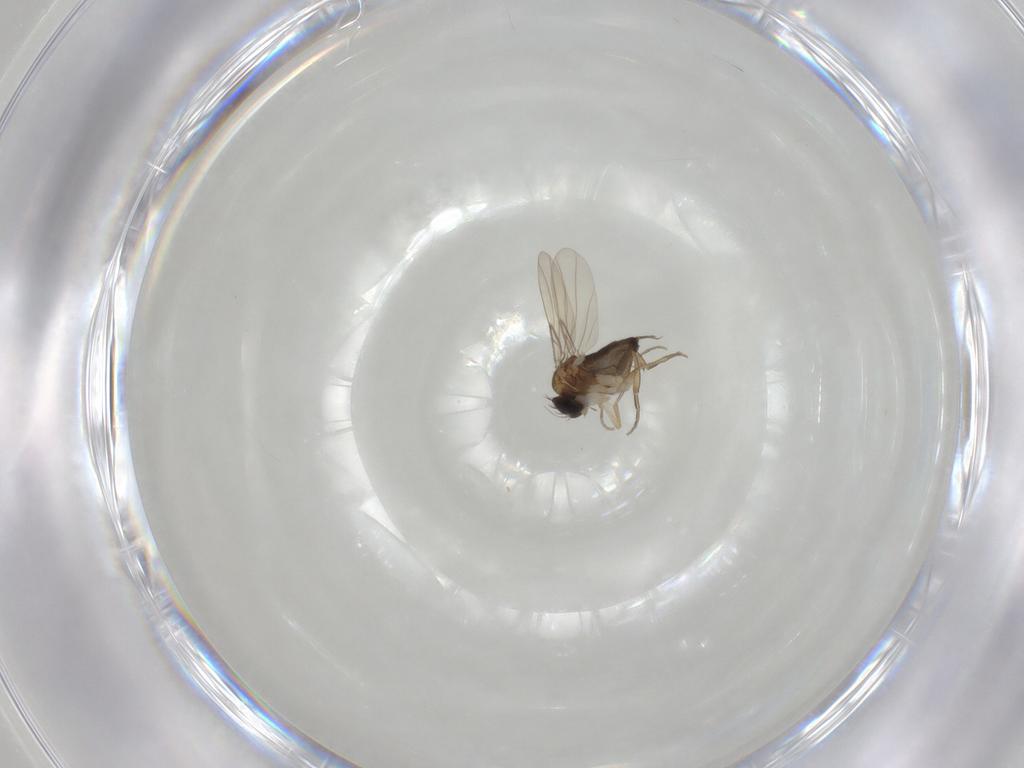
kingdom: Animalia
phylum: Arthropoda
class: Insecta
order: Diptera
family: Phoridae
